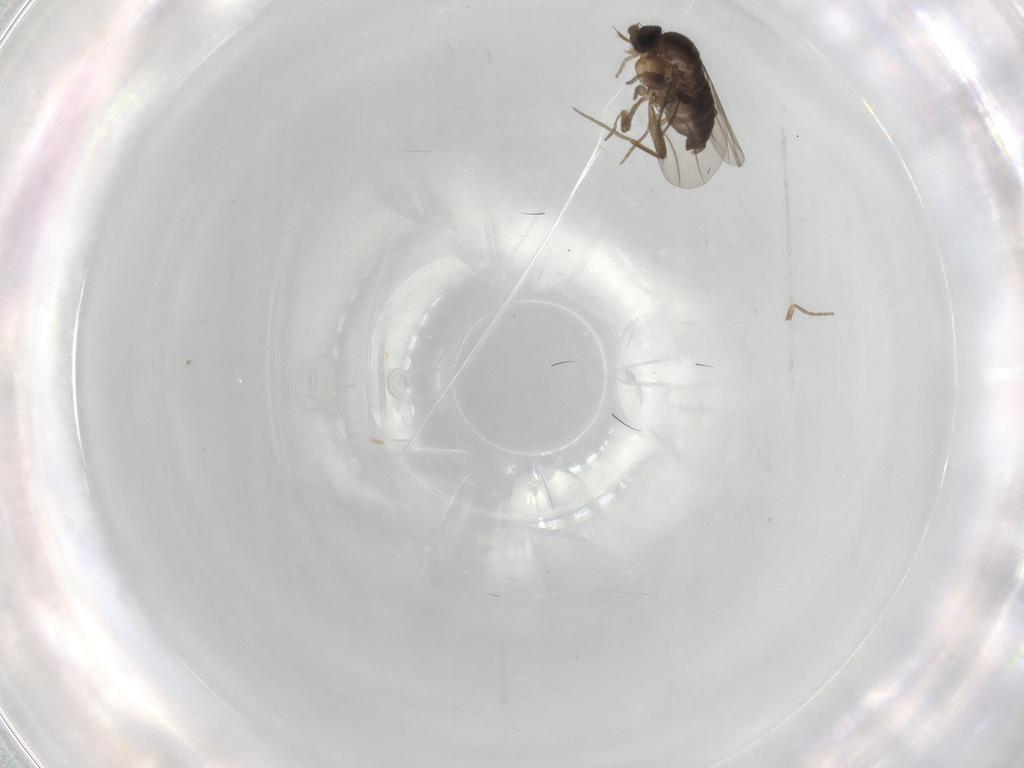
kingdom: Animalia
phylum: Arthropoda
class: Insecta
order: Diptera
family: Phoridae
